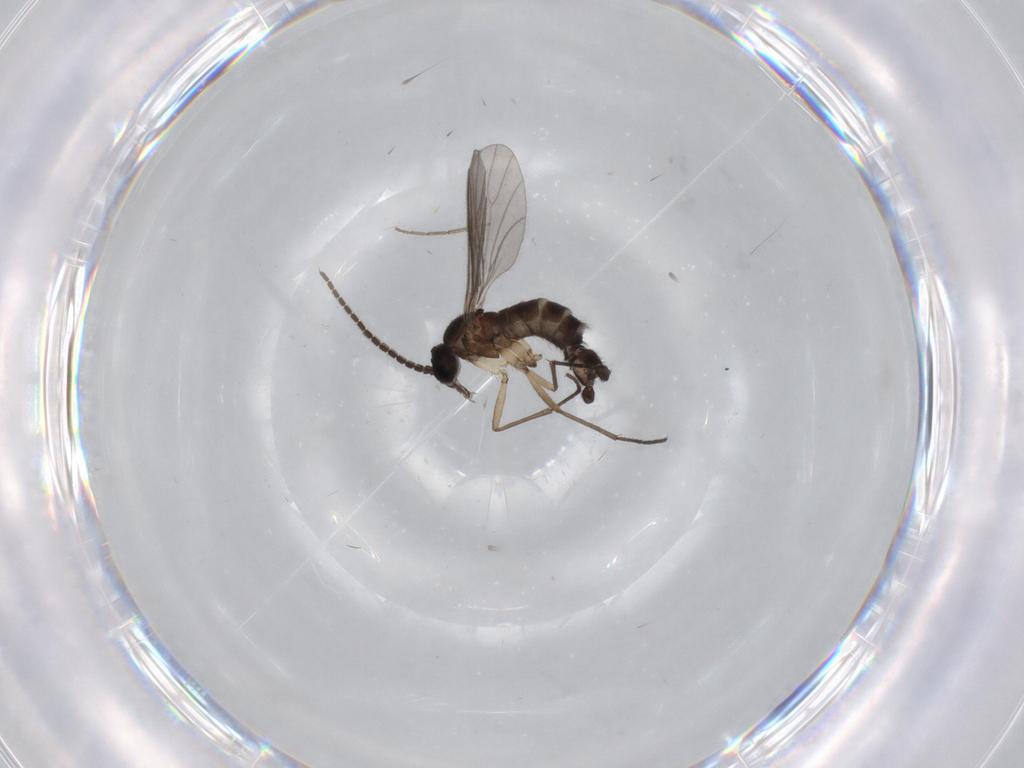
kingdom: Animalia
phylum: Arthropoda
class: Insecta
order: Diptera
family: Sciaridae
